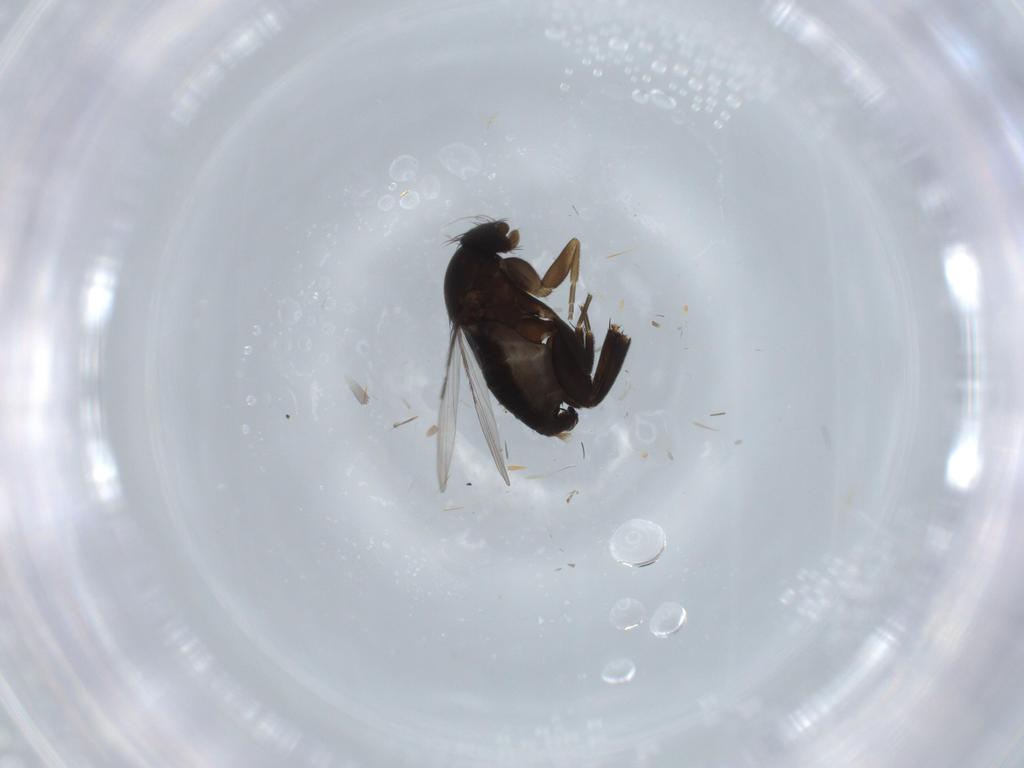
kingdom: Animalia
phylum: Arthropoda
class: Insecta
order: Diptera
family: Phoridae
